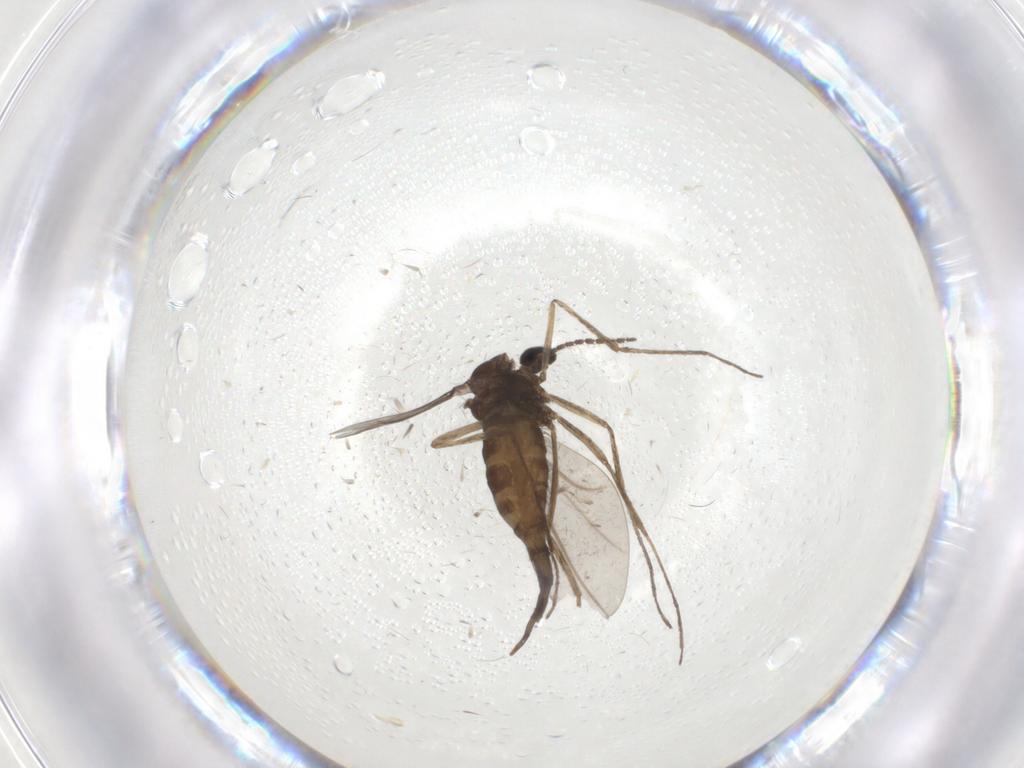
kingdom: Animalia
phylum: Arthropoda
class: Insecta
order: Diptera
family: Cecidomyiidae
